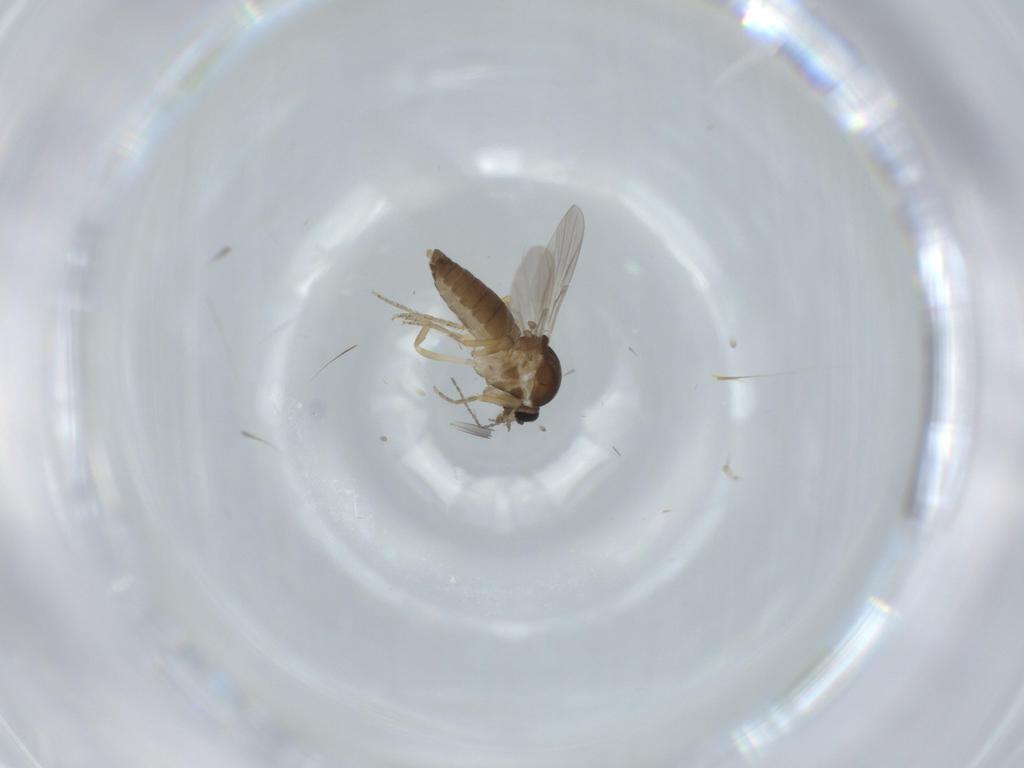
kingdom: Animalia
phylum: Arthropoda
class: Insecta
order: Diptera
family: Ceratopogonidae
